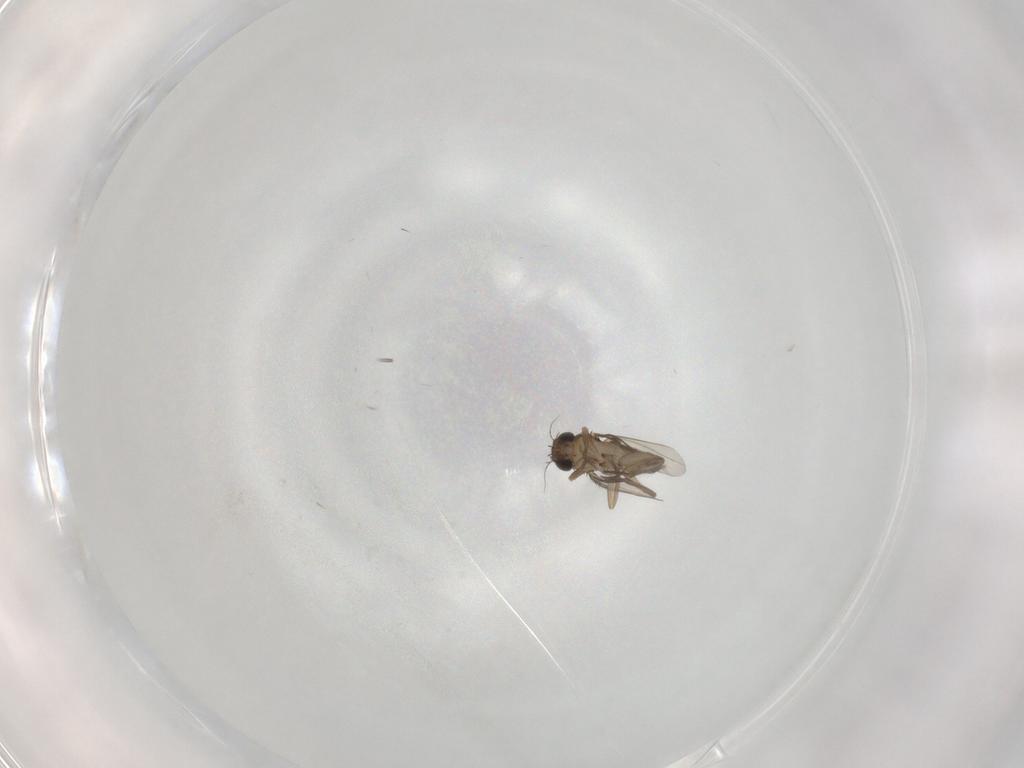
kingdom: Animalia
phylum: Arthropoda
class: Insecta
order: Diptera
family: Phoridae
